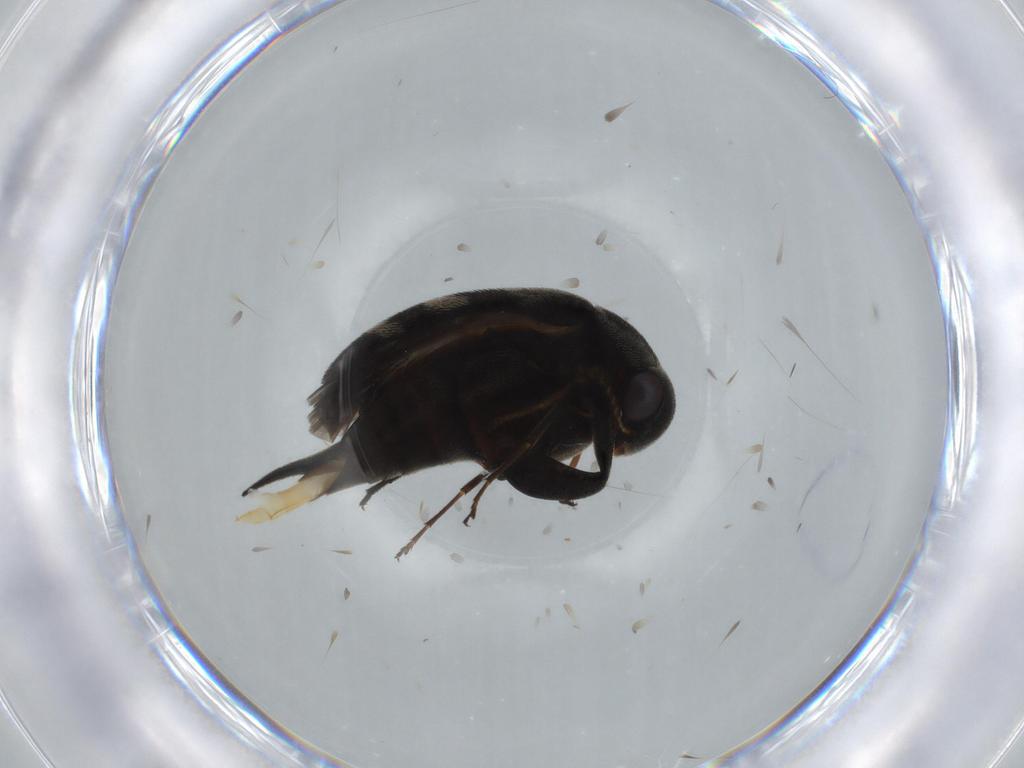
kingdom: Animalia
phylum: Arthropoda
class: Insecta
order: Coleoptera
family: Mordellidae
